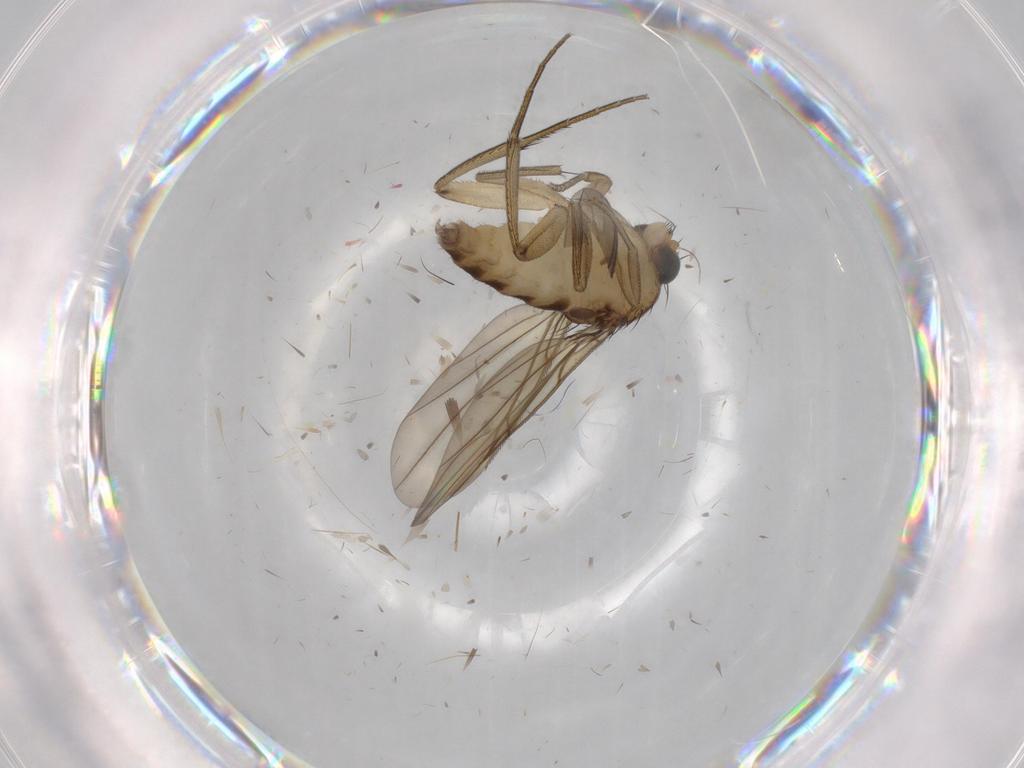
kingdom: Animalia
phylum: Arthropoda
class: Insecta
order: Diptera
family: Phoridae
